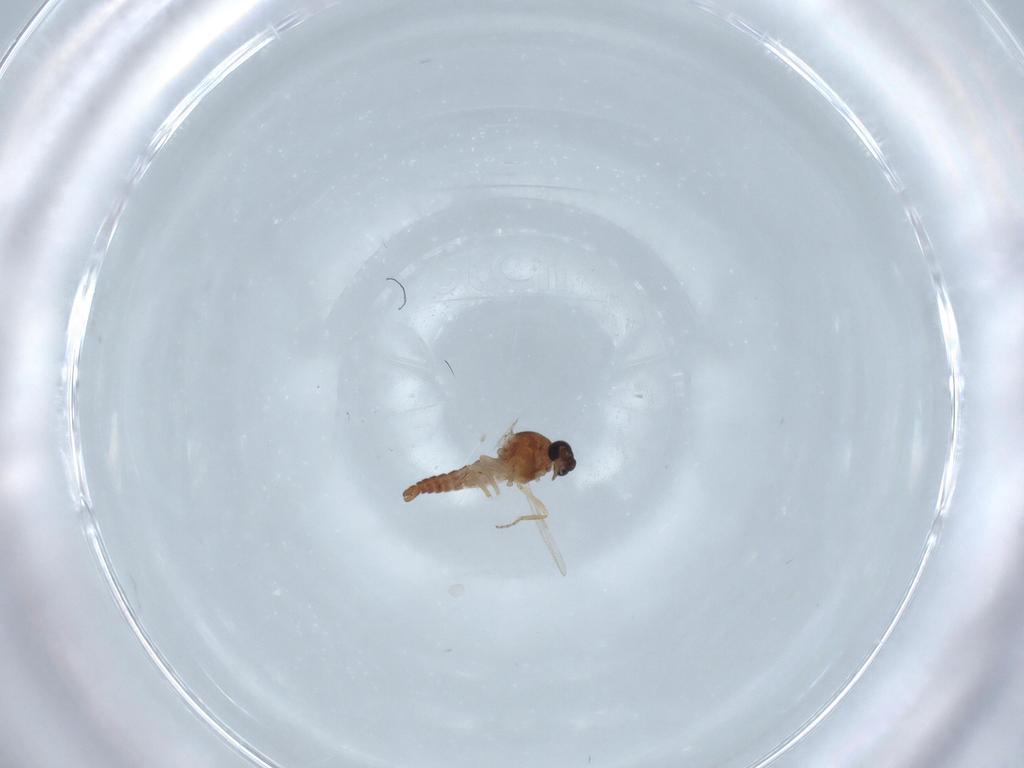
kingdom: Animalia
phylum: Arthropoda
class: Insecta
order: Diptera
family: Ceratopogonidae
